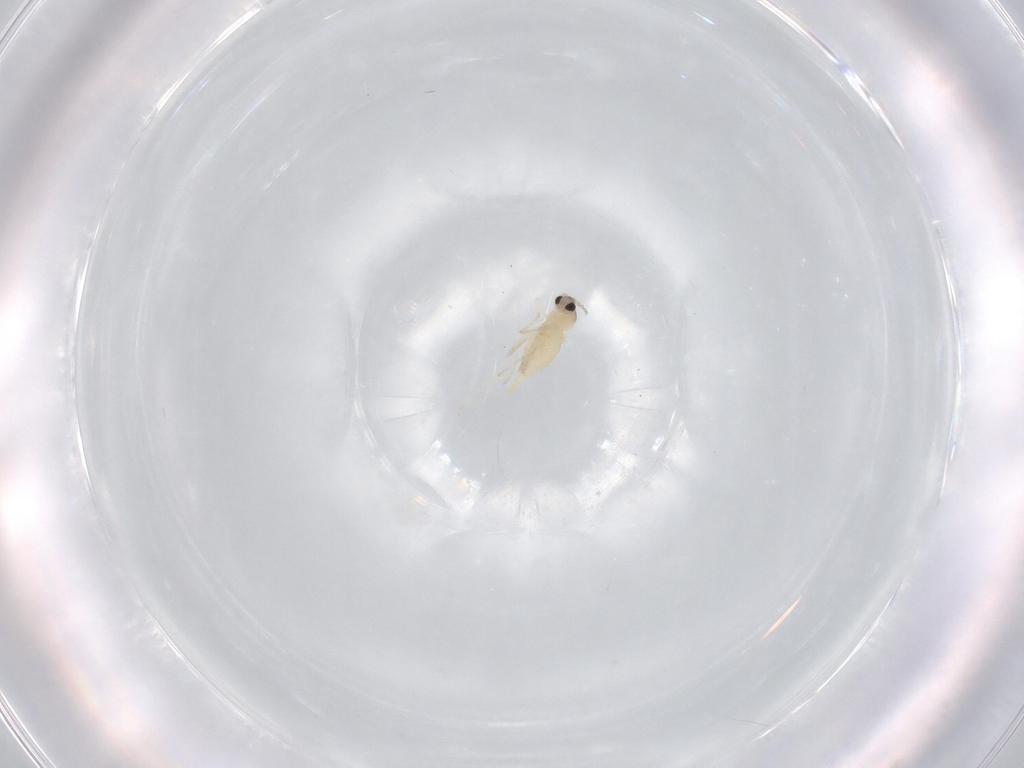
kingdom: Animalia
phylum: Arthropoda
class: Insecta
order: Diptera
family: Cecidomyiidae
